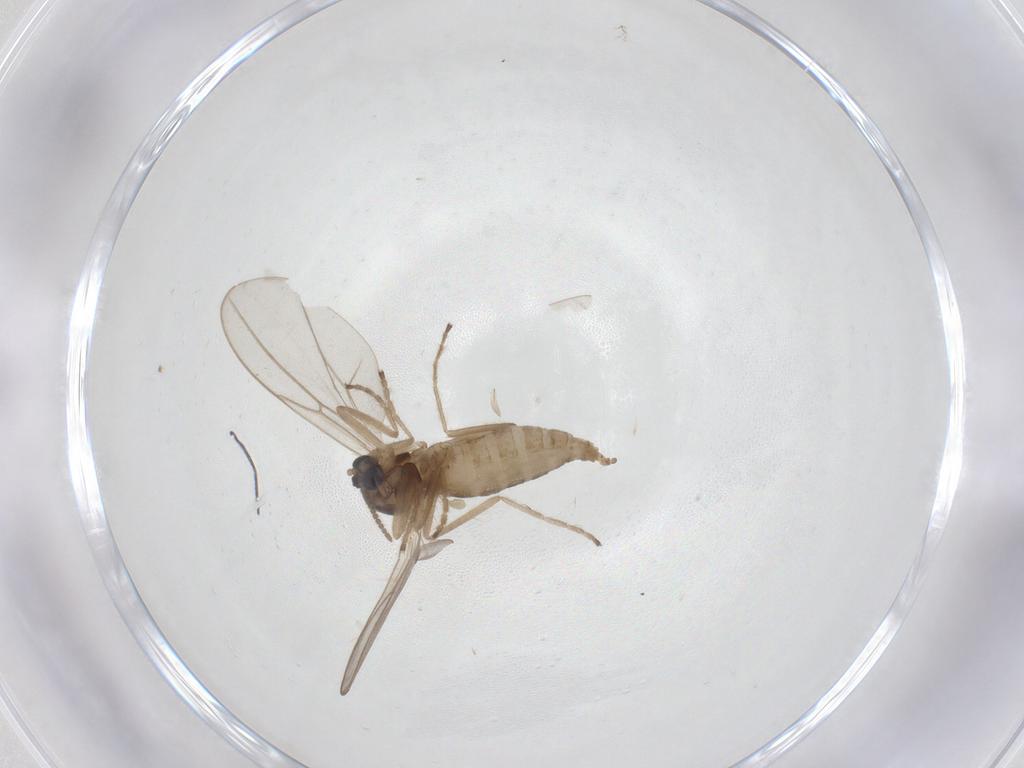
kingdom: Animalia
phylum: Arthropoda
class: Insecta
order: Diptera
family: Cecidomyiidae
